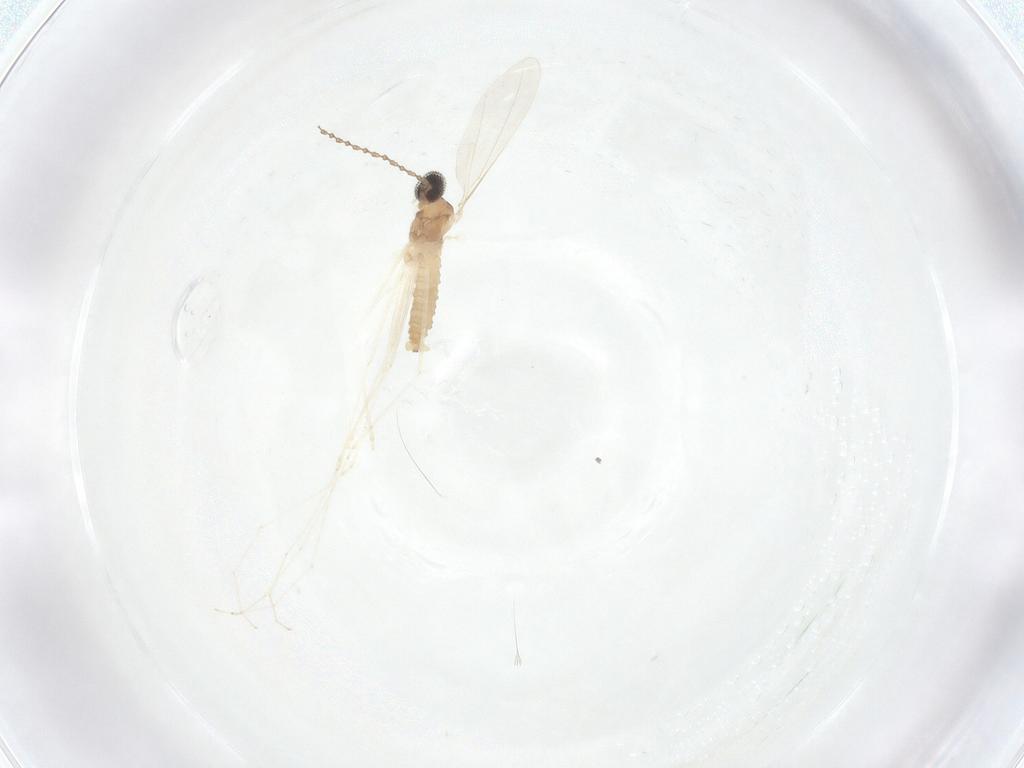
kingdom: Animalia
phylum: Arthropoda
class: Insecta
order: Diptera
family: Cecidomyiidae
